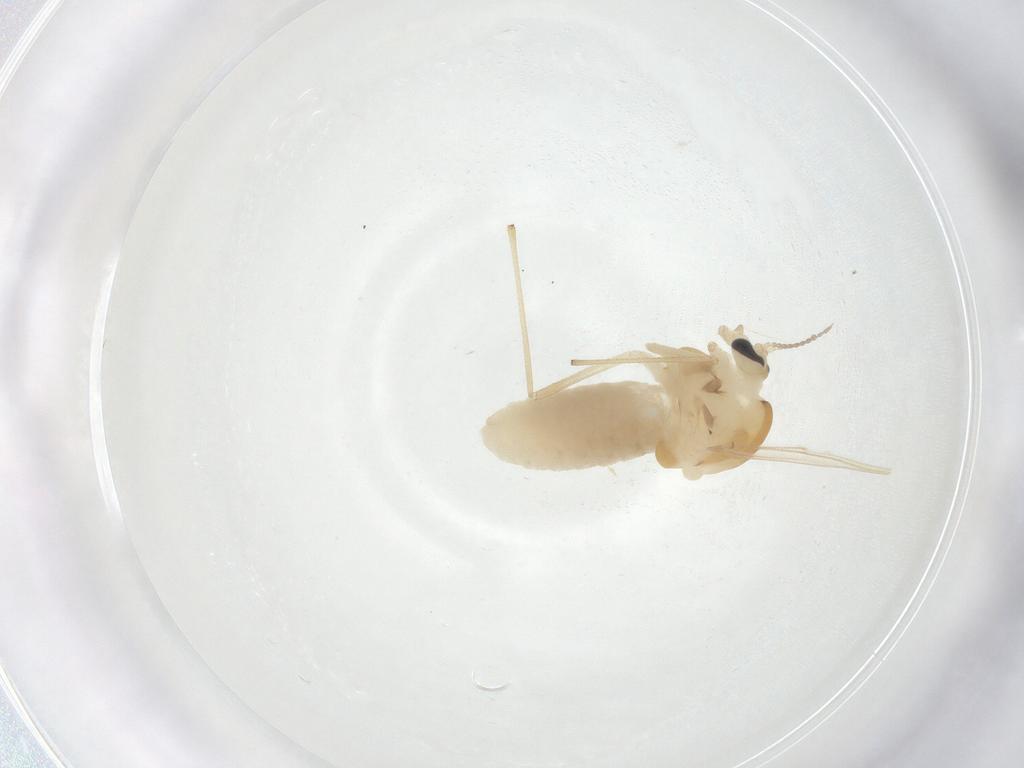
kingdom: Animalia
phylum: Arthropoda
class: Insecta
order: Diptera
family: Chironomidae
